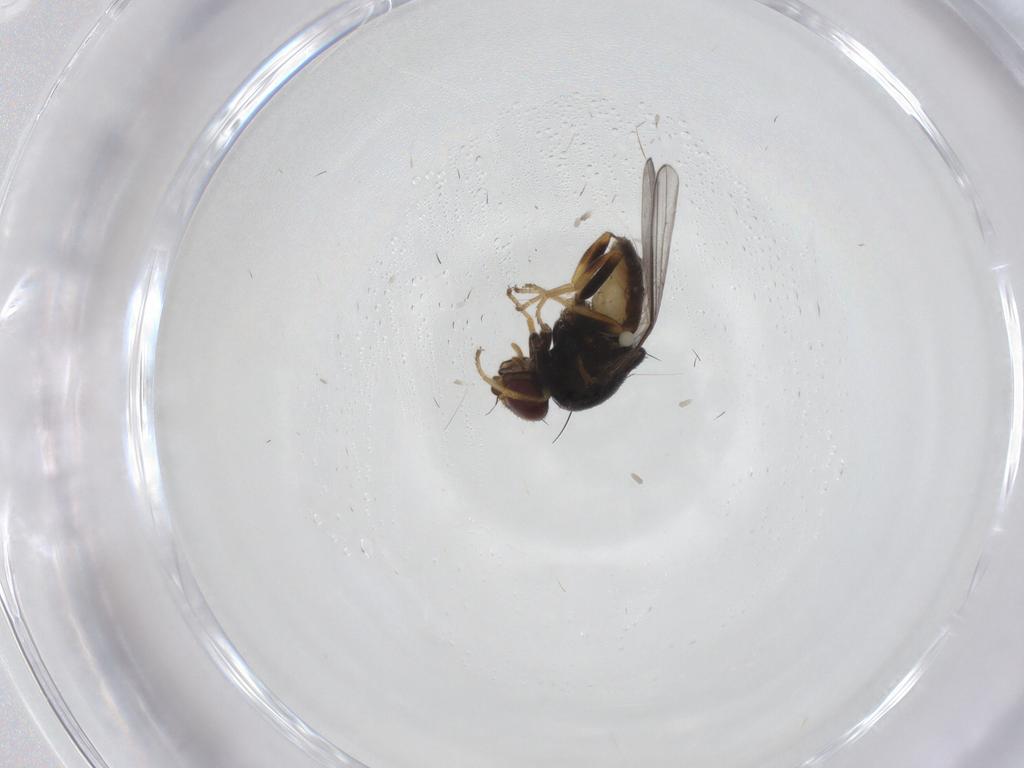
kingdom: Animalia
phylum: Arthropoda
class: Insecta
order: Diptera
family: Chloropidae
